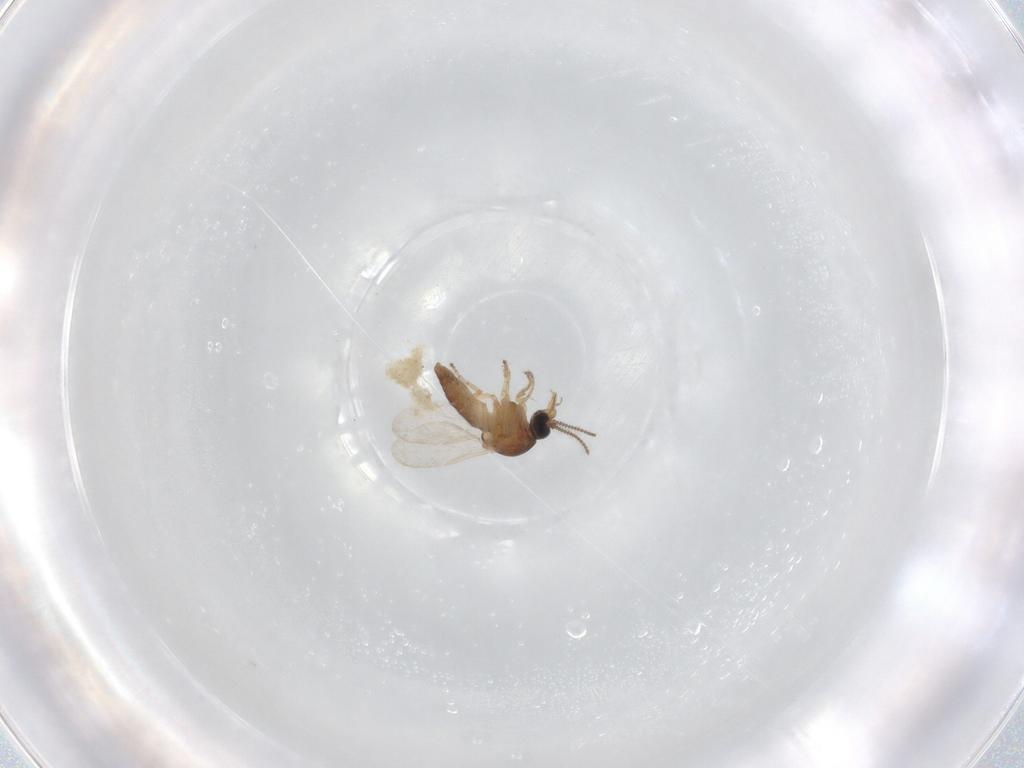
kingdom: Animalia
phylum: Arthropoda
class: Insecta
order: Diptera
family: Ceratopogonidae
